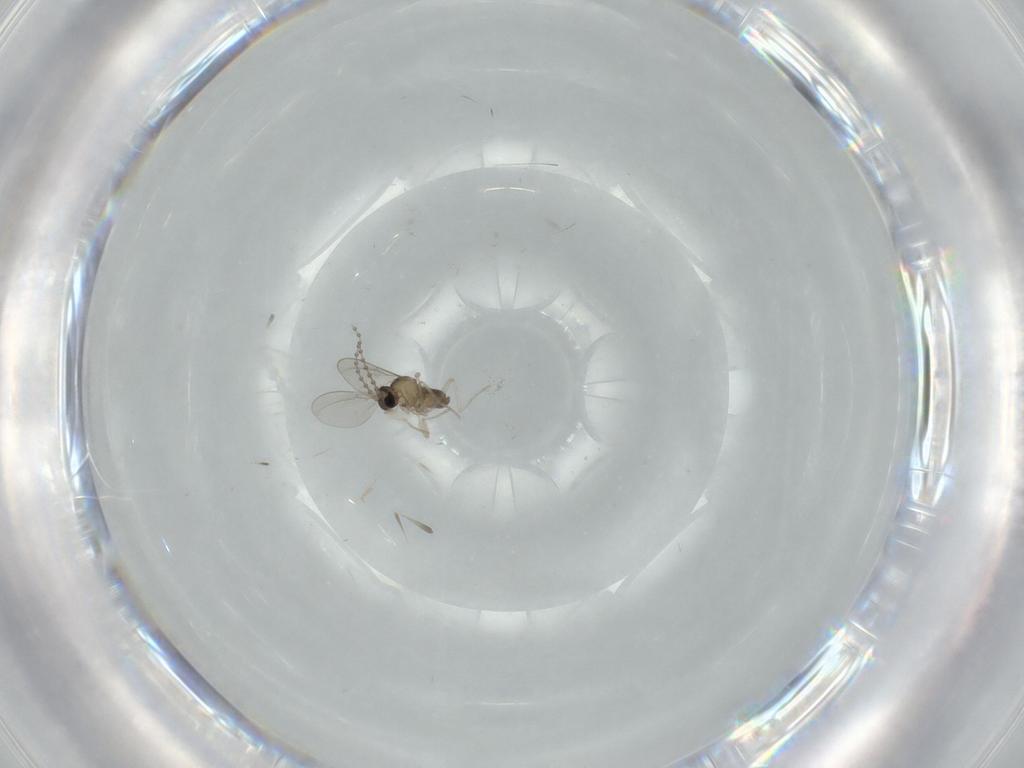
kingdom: Animalia
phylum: Arthropoda
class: Insecta
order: Diptera
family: Cecidomyiidae
